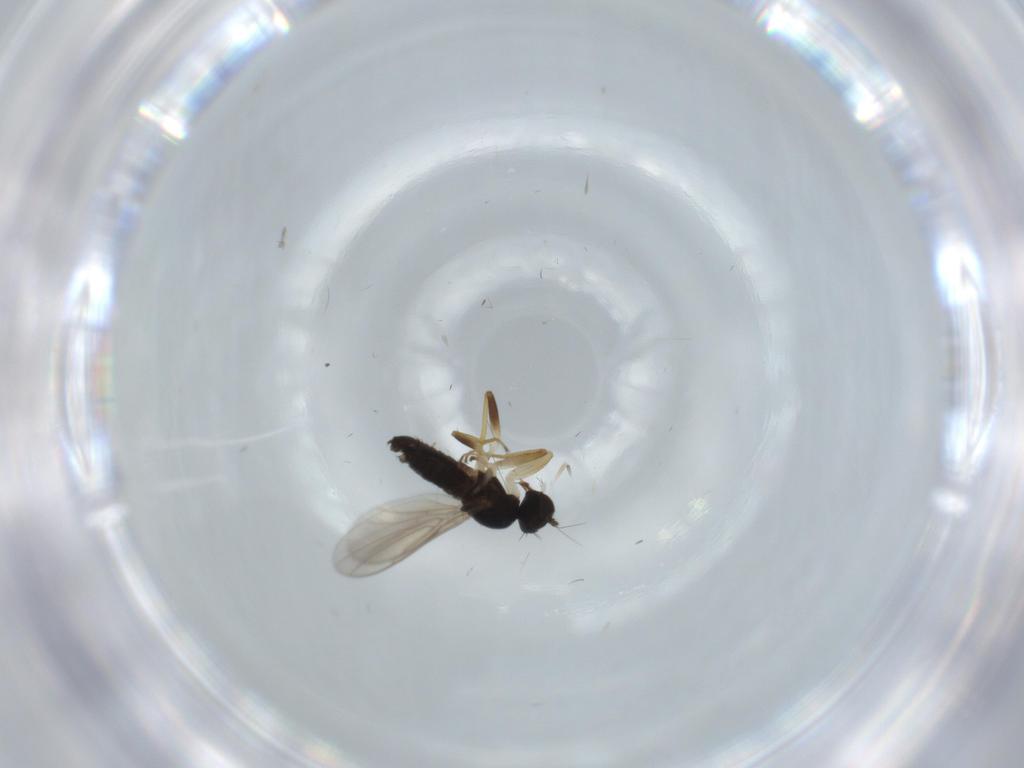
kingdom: Animalia
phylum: Arthropoda
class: Insecta
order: Diptera
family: Hybotidae
